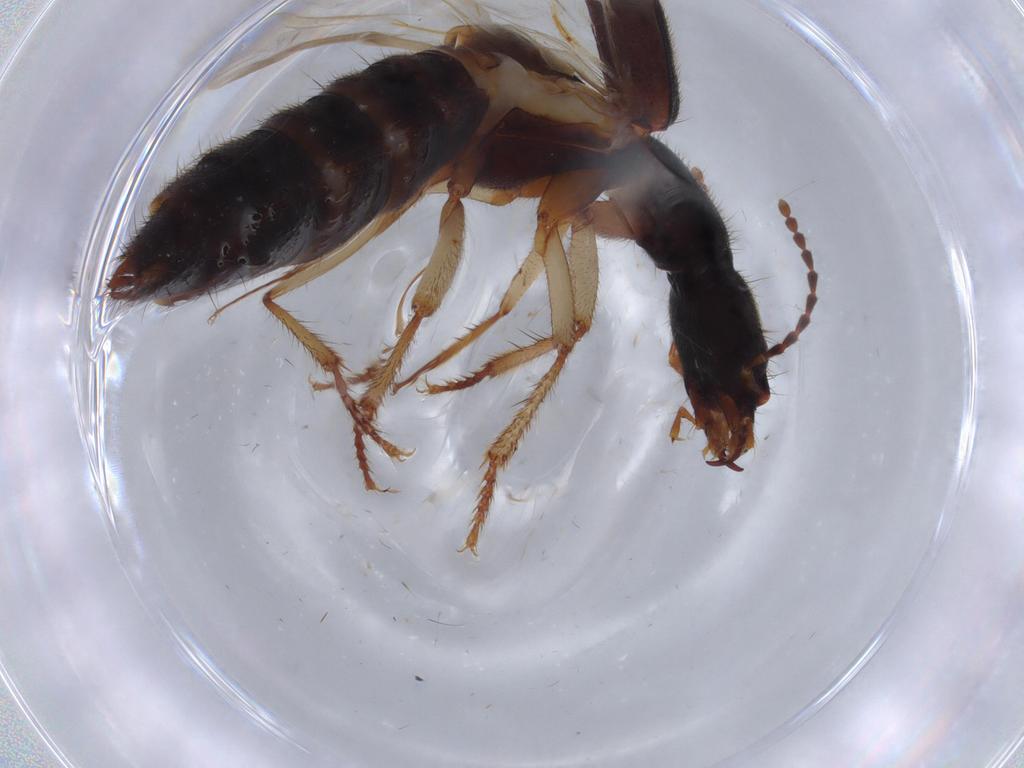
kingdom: Animalia
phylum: Arthropoda
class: Insecta
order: Coleoptera
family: Staphylinidae
